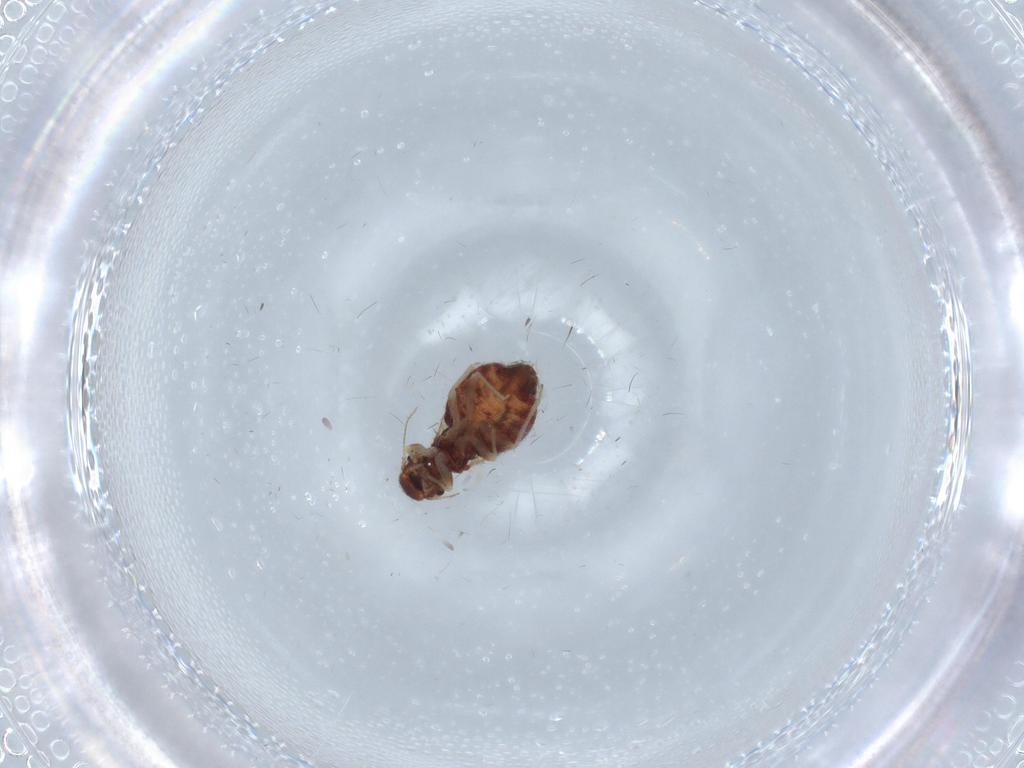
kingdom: Animalia
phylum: Arthropoda
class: Insecta
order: Psocodea
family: Archipsocidae
